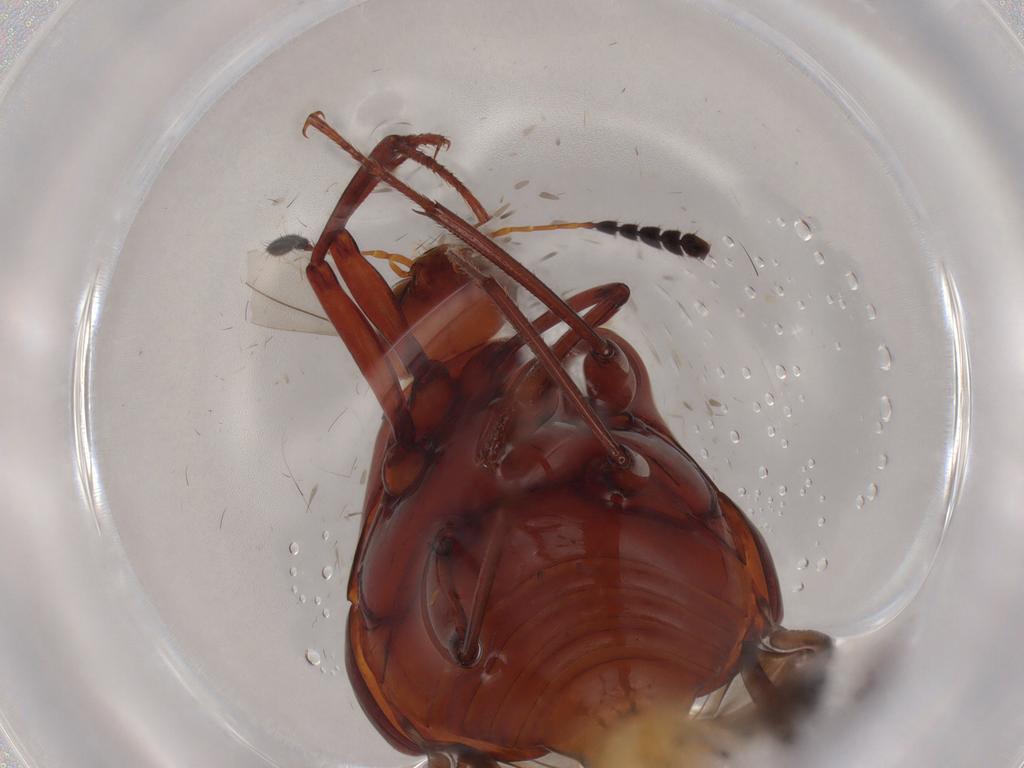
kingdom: Animalia
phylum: Arthropoda
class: Insecta
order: Coleoptera
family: Staphylinidae
